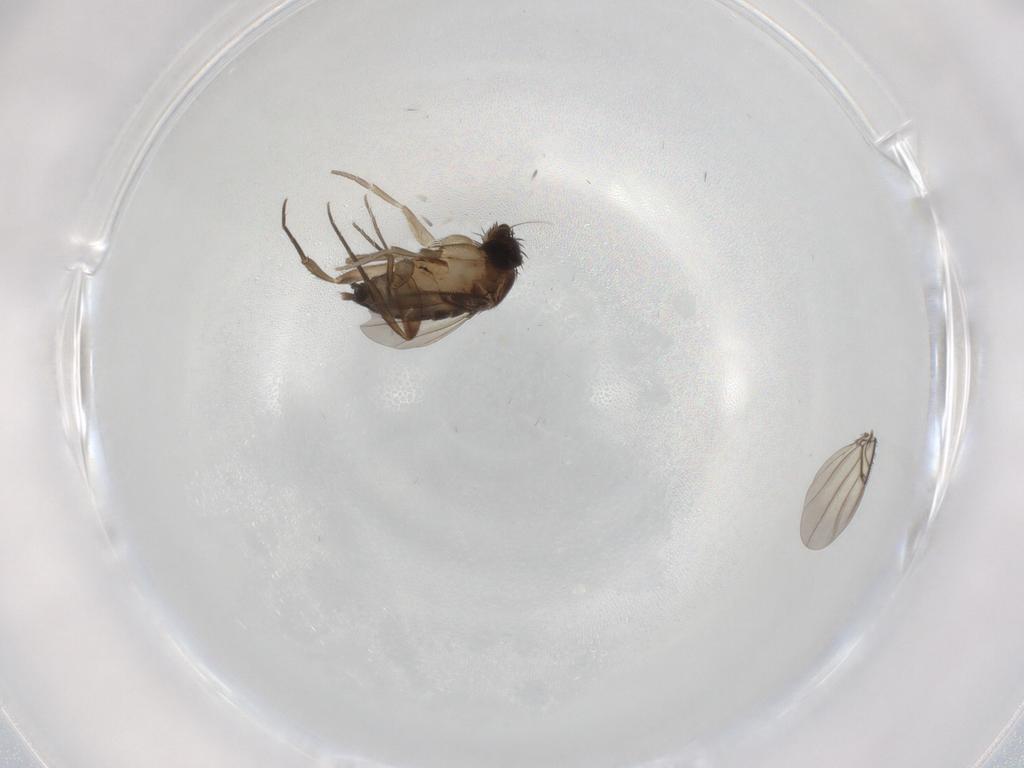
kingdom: Animalia
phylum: Arthropoda
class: Insecta
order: Diptera
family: Phoridae
